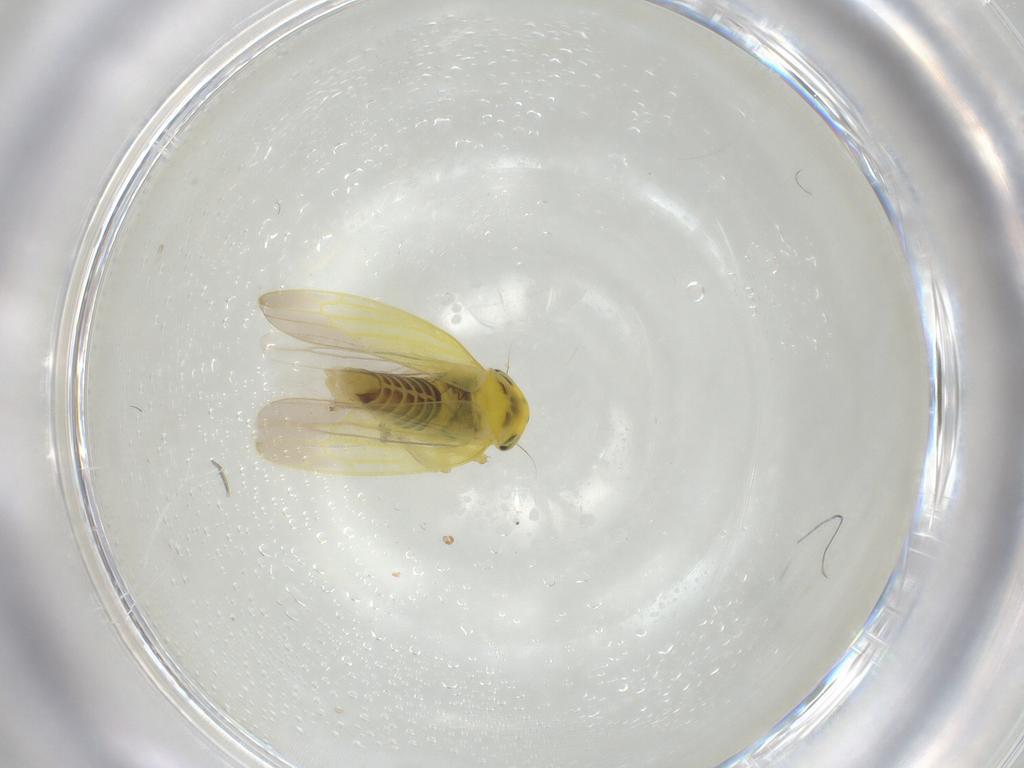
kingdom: Animalia
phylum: Arthropoda
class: Insecta
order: Hemiptera
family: Cicadellidae
